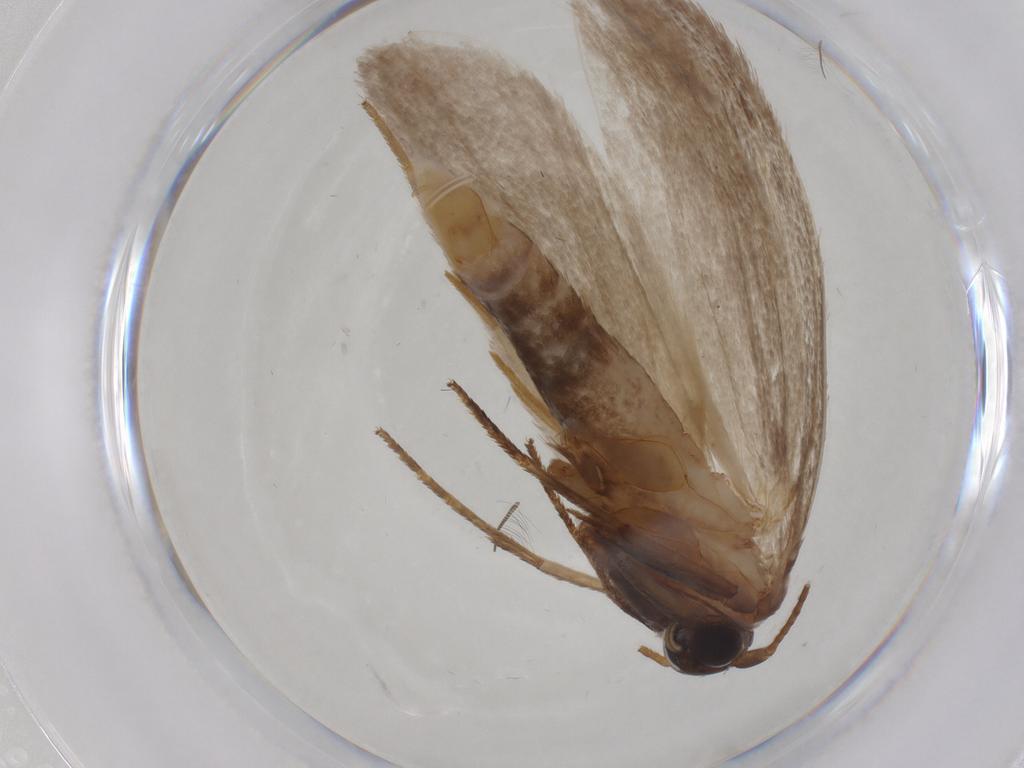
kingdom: Animalia
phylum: Arthropoda
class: Insecta
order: Lepidoptera
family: Roeslerstammiidae
